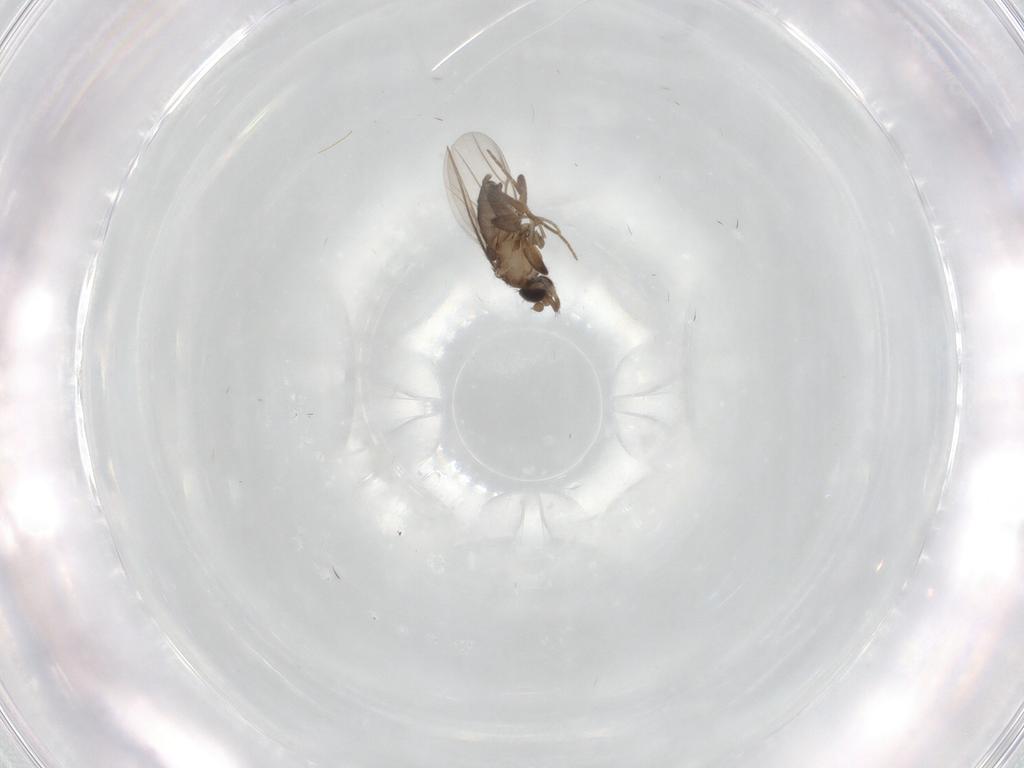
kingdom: Animalia
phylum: Arthropoda
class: Insecta
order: Diptera
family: Phoridae
